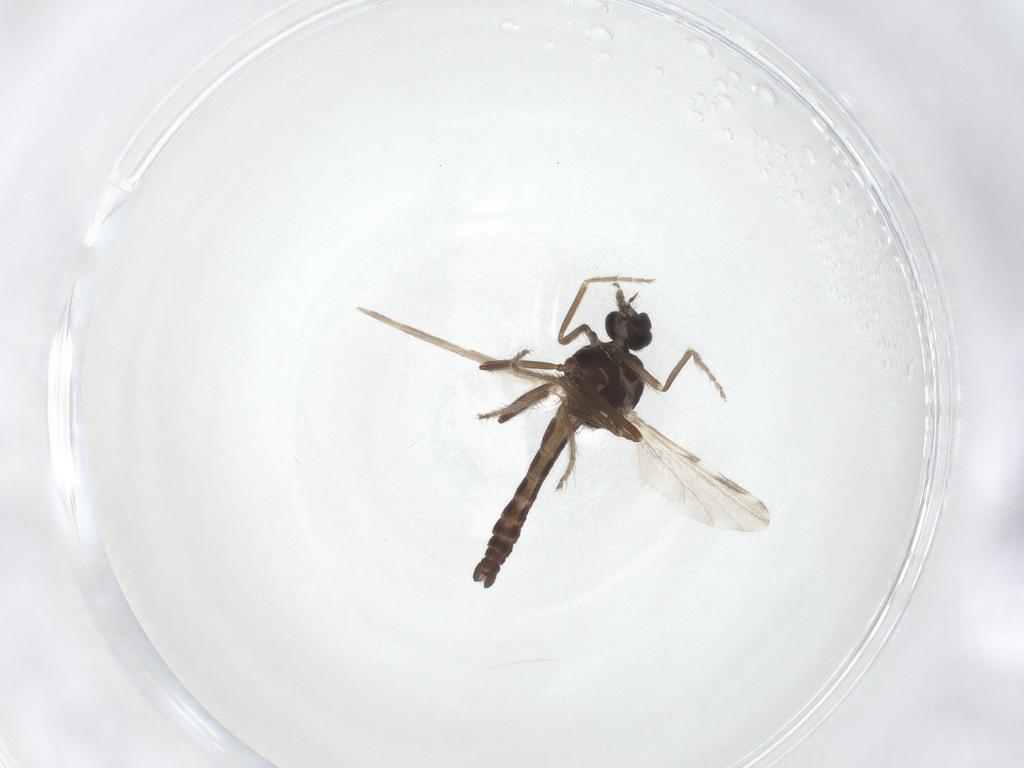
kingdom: Animalia
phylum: Arthropoda
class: Insecta
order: Diptera
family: Ceratopogonidae
